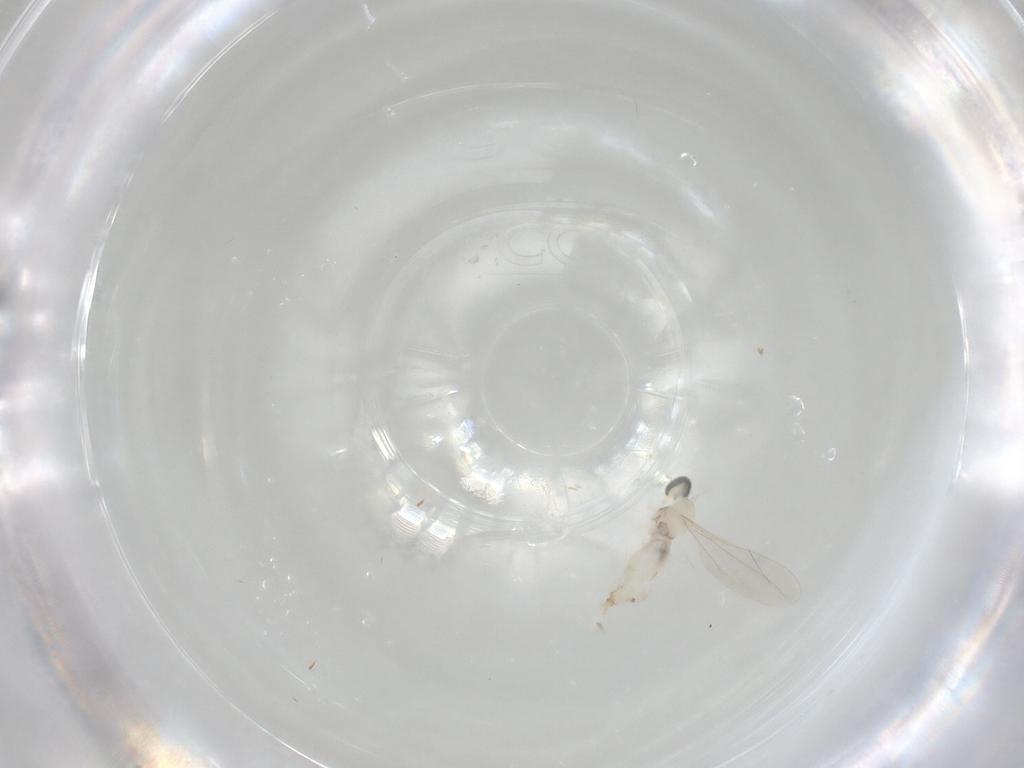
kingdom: Animalia
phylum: Arthropoda
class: Insecta
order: Diptera
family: Cecidomyiidae
